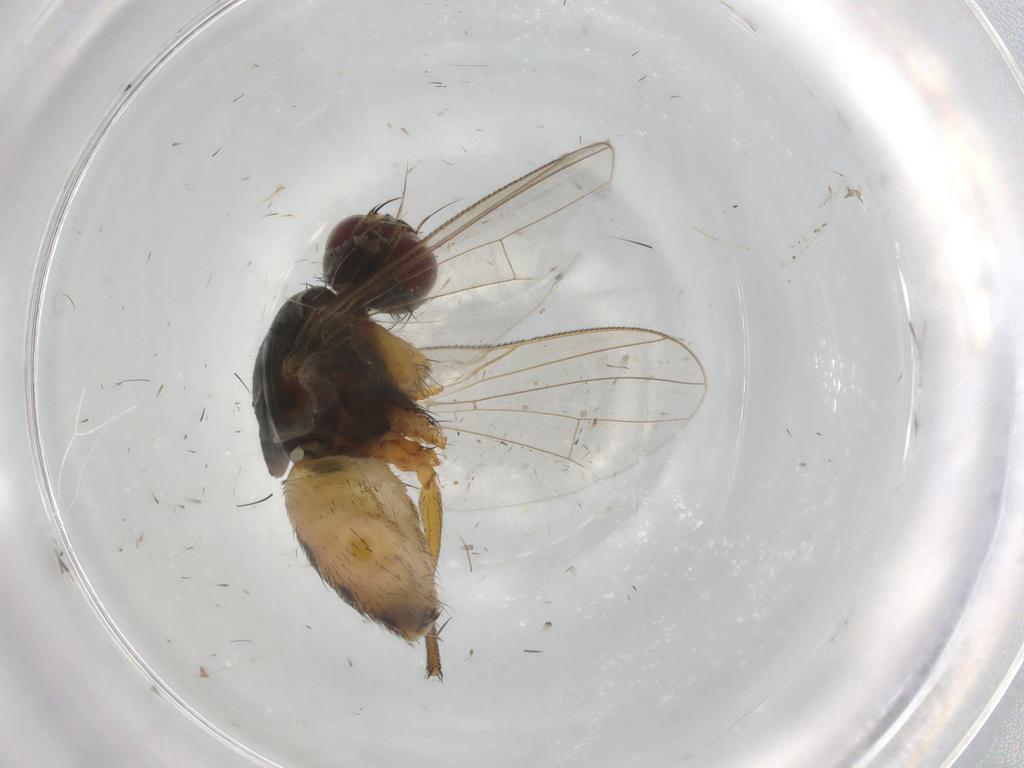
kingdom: Animalia
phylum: Arthropoda
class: Insecta
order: Diptera
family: Muscidae
